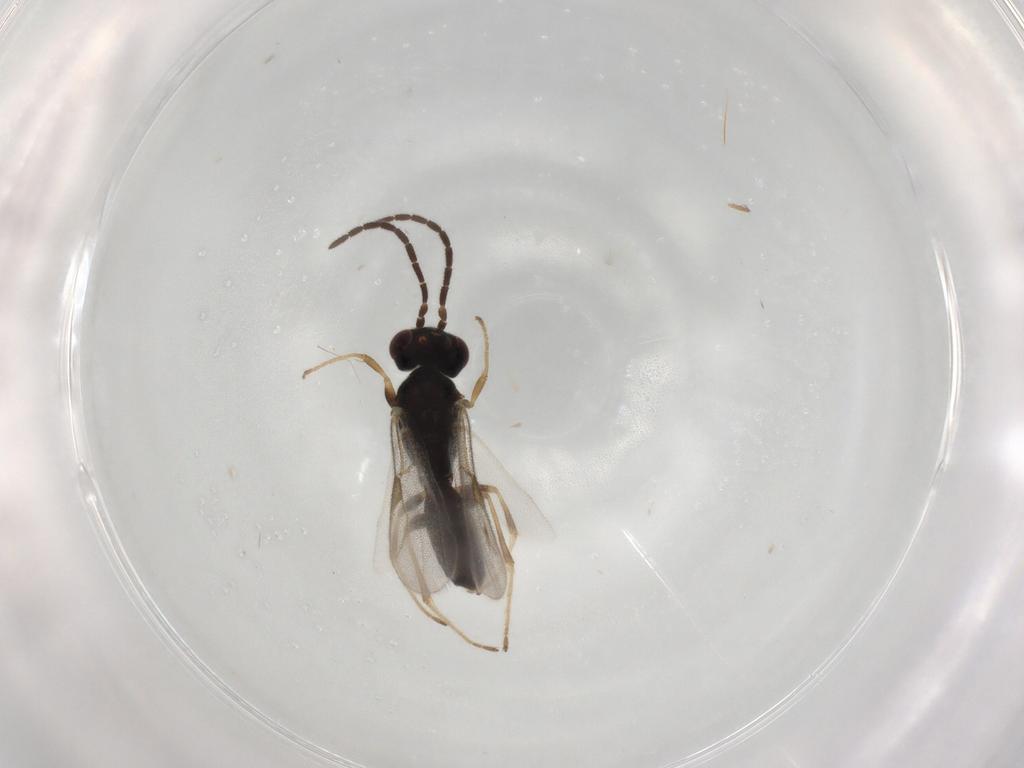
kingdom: Animalia
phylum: Arthropoda
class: Insecta
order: Hymenoptera
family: Dryinidae
